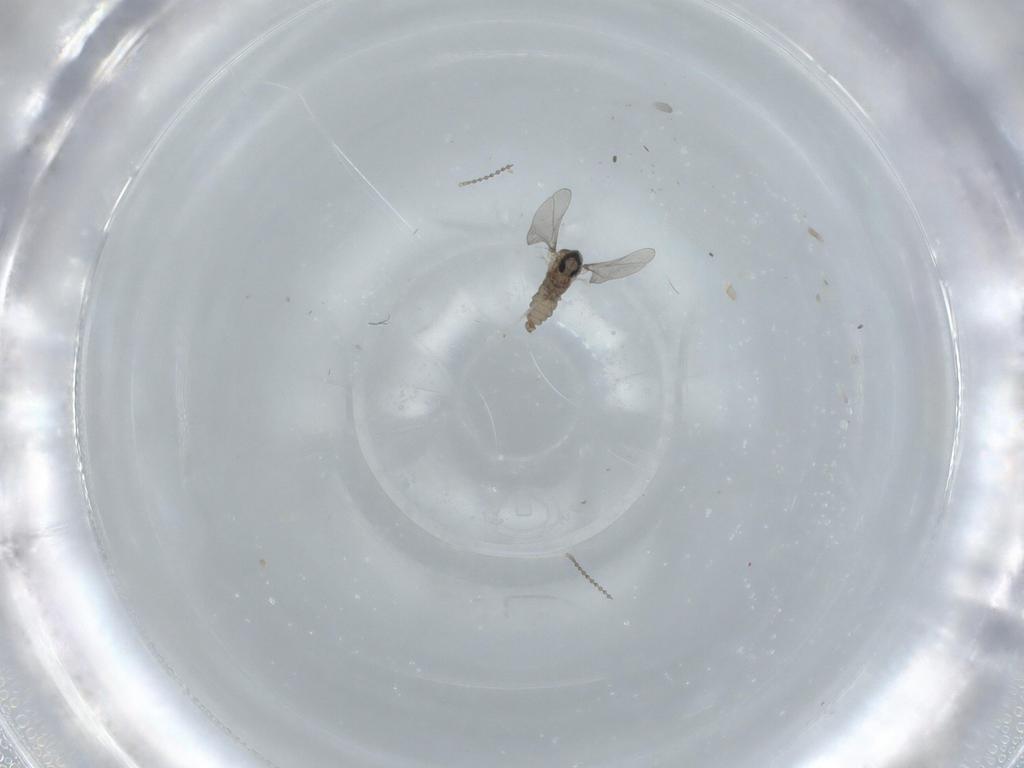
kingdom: Animalia
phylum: Arthropoda
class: Insecta
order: Diptera
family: Cecidomyiidae
